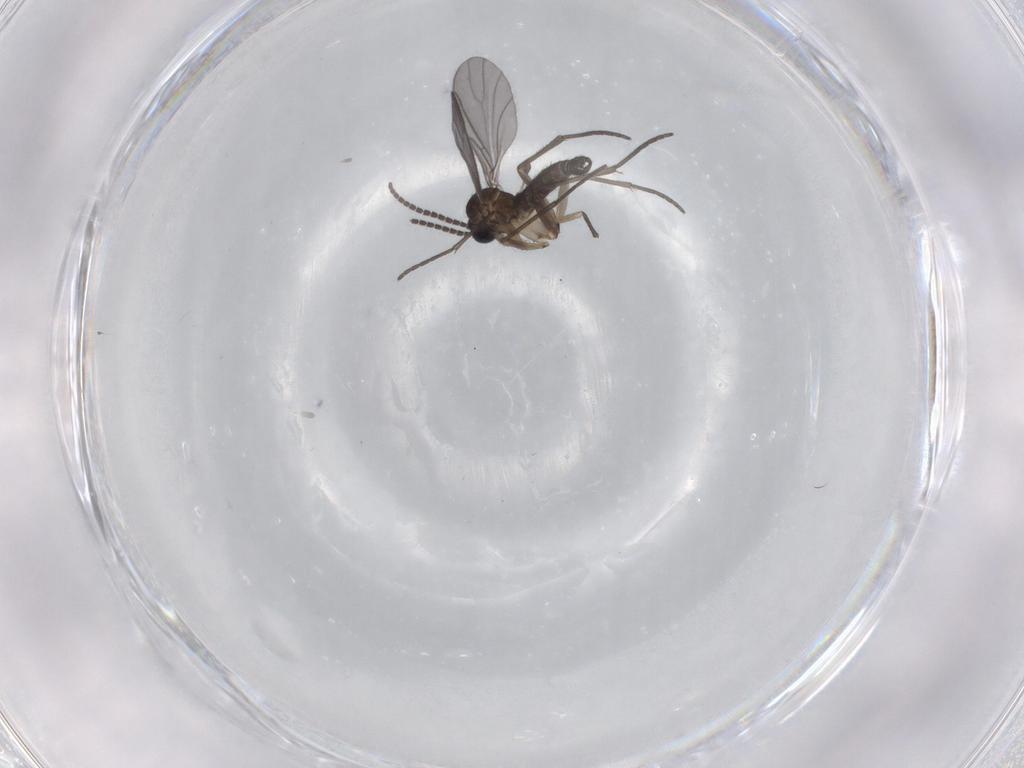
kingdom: Animalia
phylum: Arthropoda
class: Insecta
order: Diptera
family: Sciaridae
